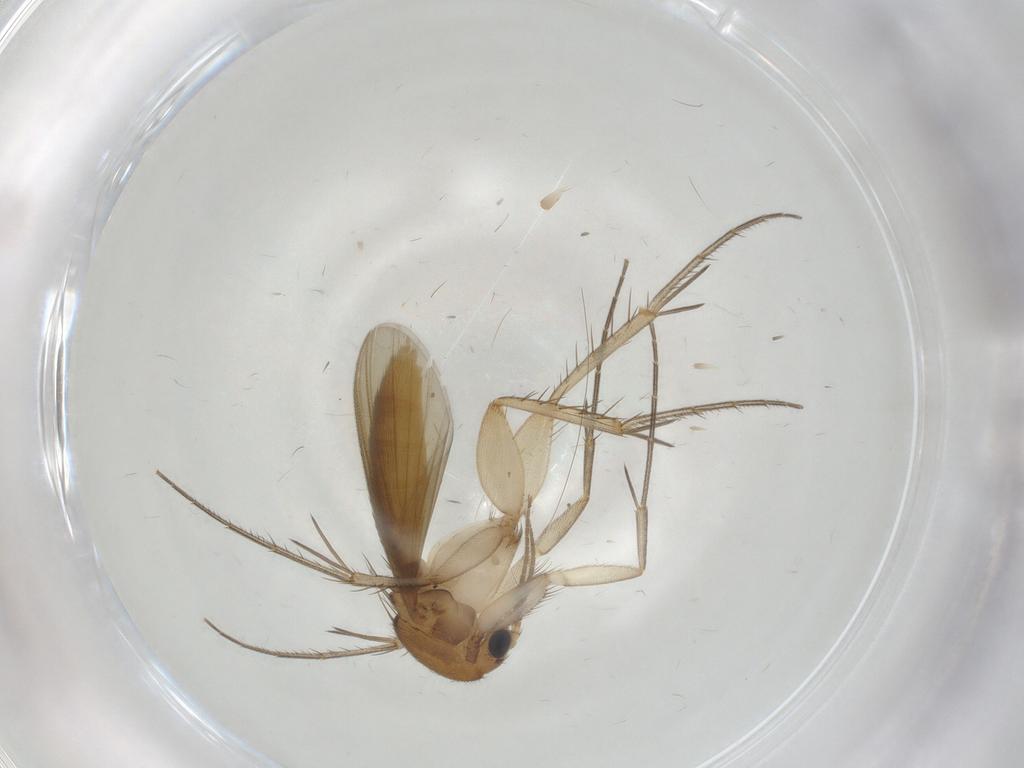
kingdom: Animalia
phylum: Arthropoda
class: Insecta
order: Diptera
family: Mycetophilidae
